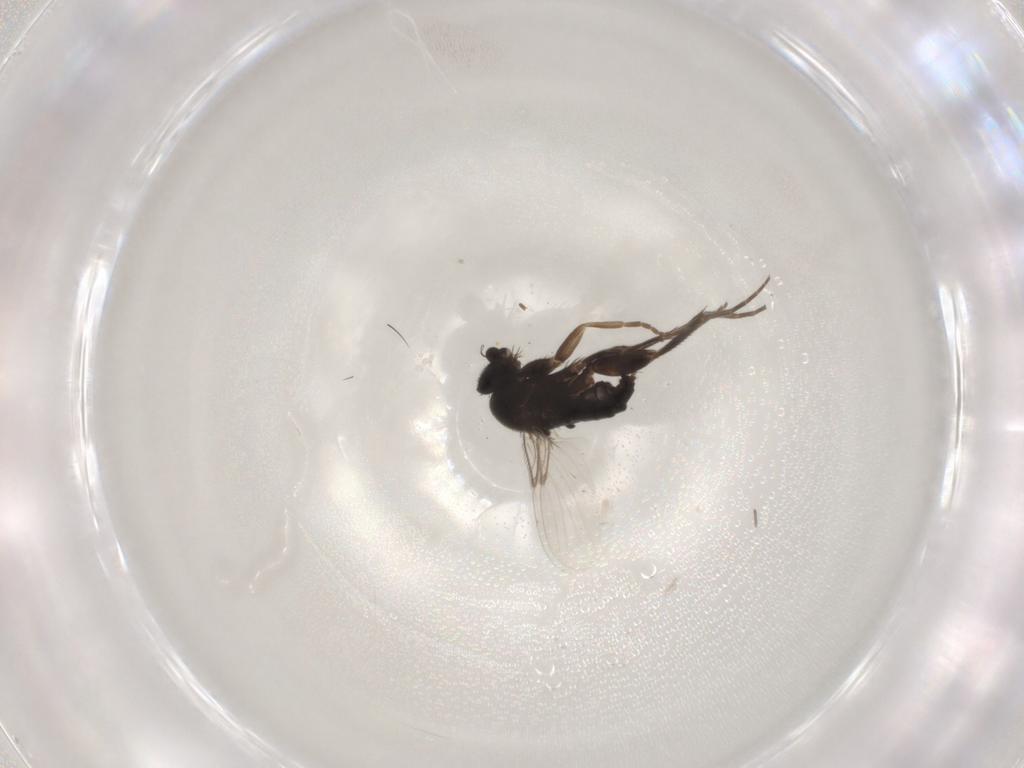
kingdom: Animalia
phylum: Arthropoda
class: Insecta
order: Diptera
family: Phoridae
